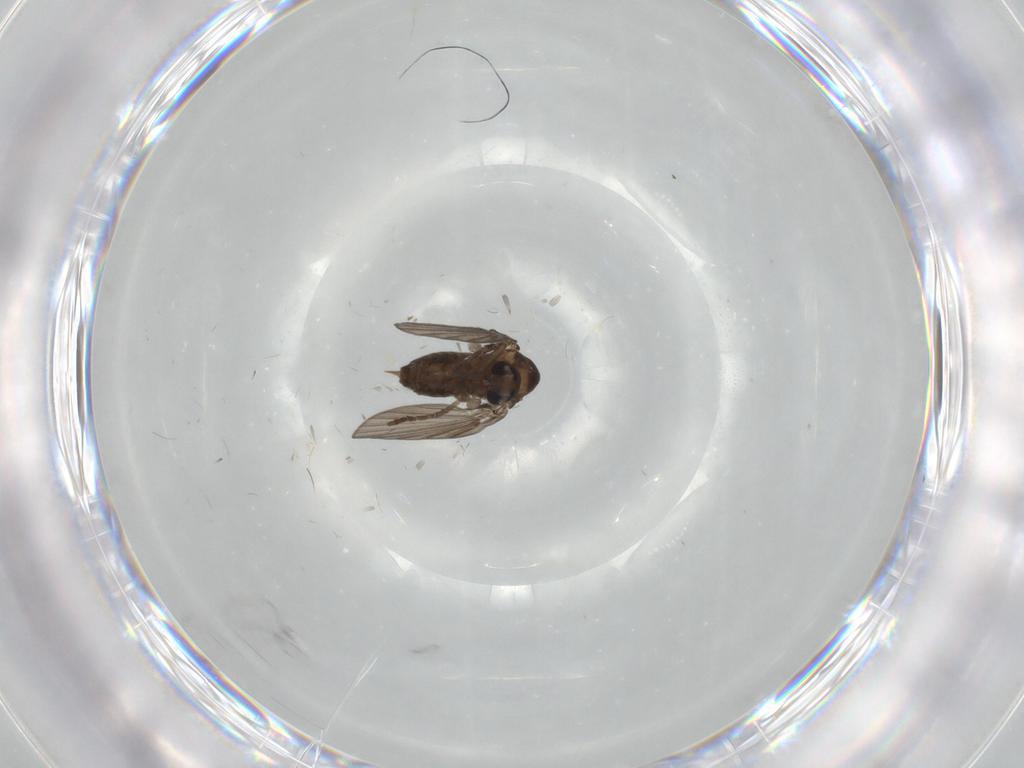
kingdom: Animalia
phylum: Arthropoda
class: Insecta
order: Diptera
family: Psychodidae
